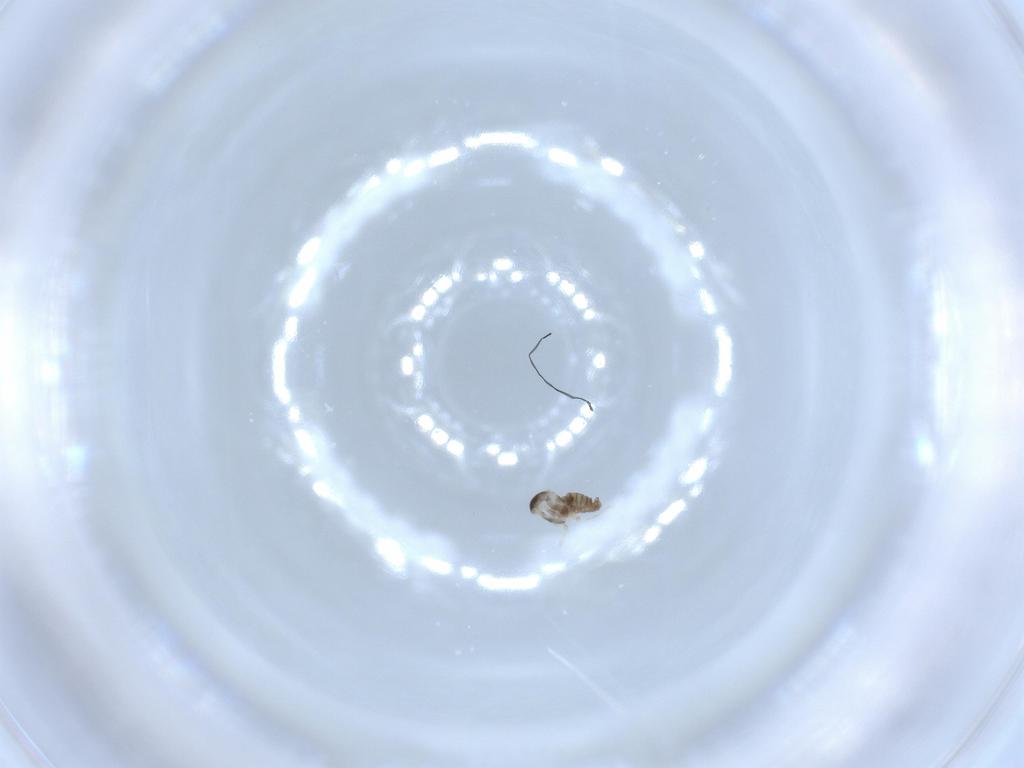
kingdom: Animalia
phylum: Arthropoda
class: Insecta
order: Diptera
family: Cecidomyiidae
